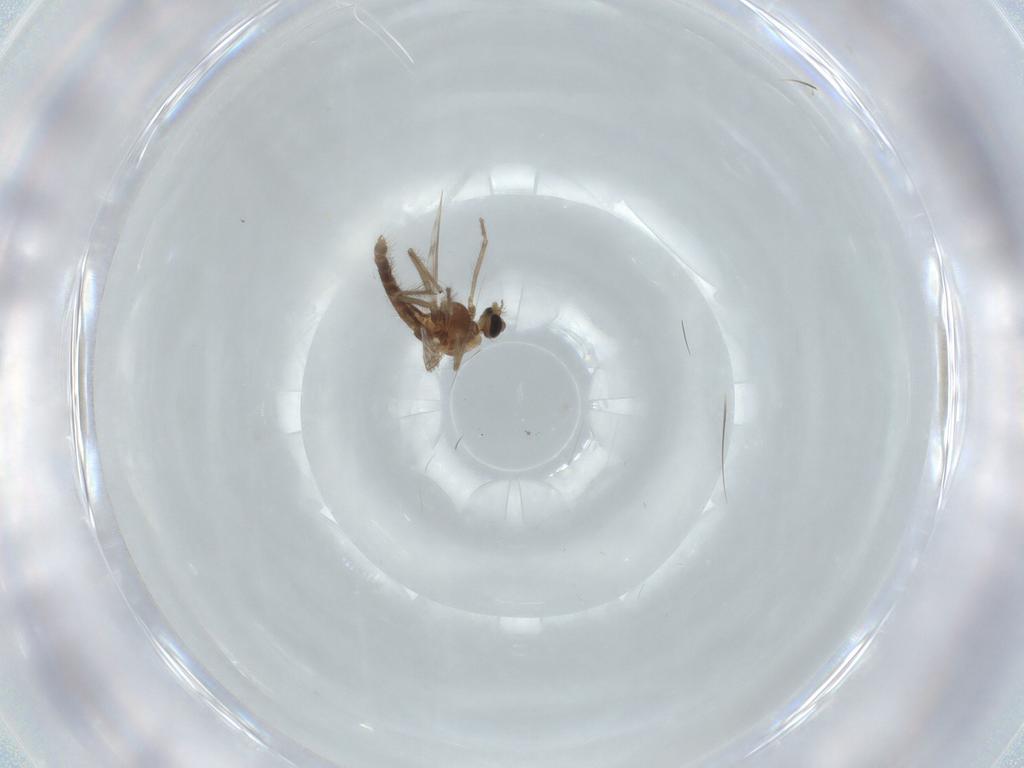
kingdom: Animalia
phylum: Arthropoda
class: Insecta
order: Diptera
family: Chironomidae
